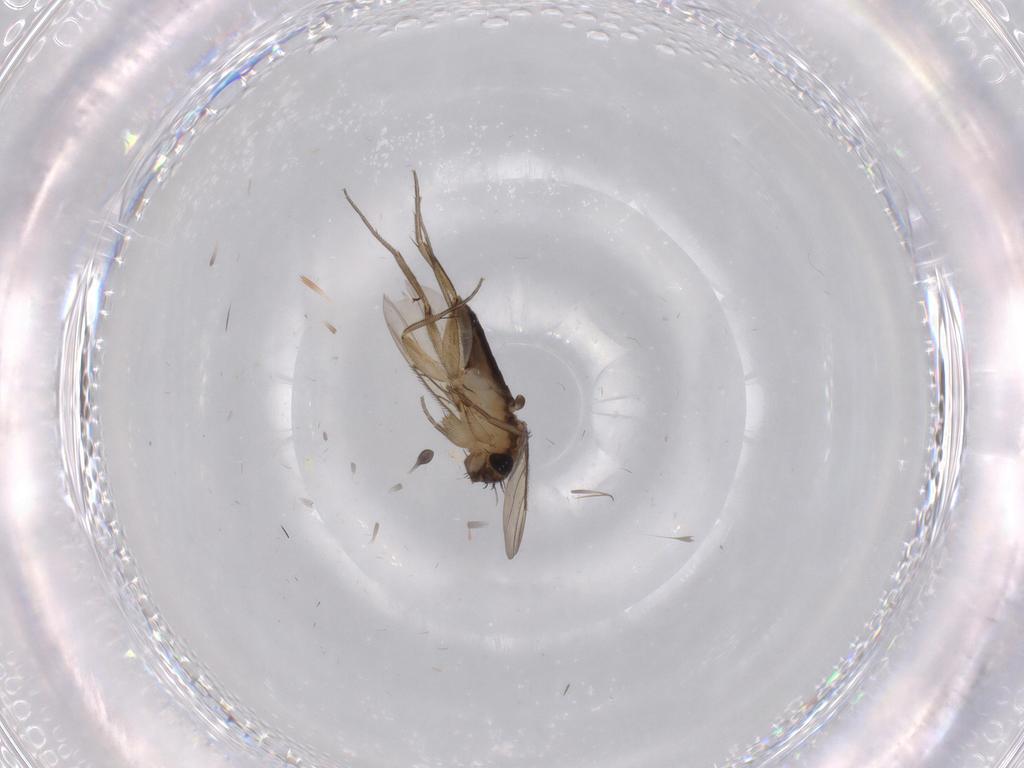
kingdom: Animalia
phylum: Arthropoda
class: Insecta
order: Diptera
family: Phoridae
